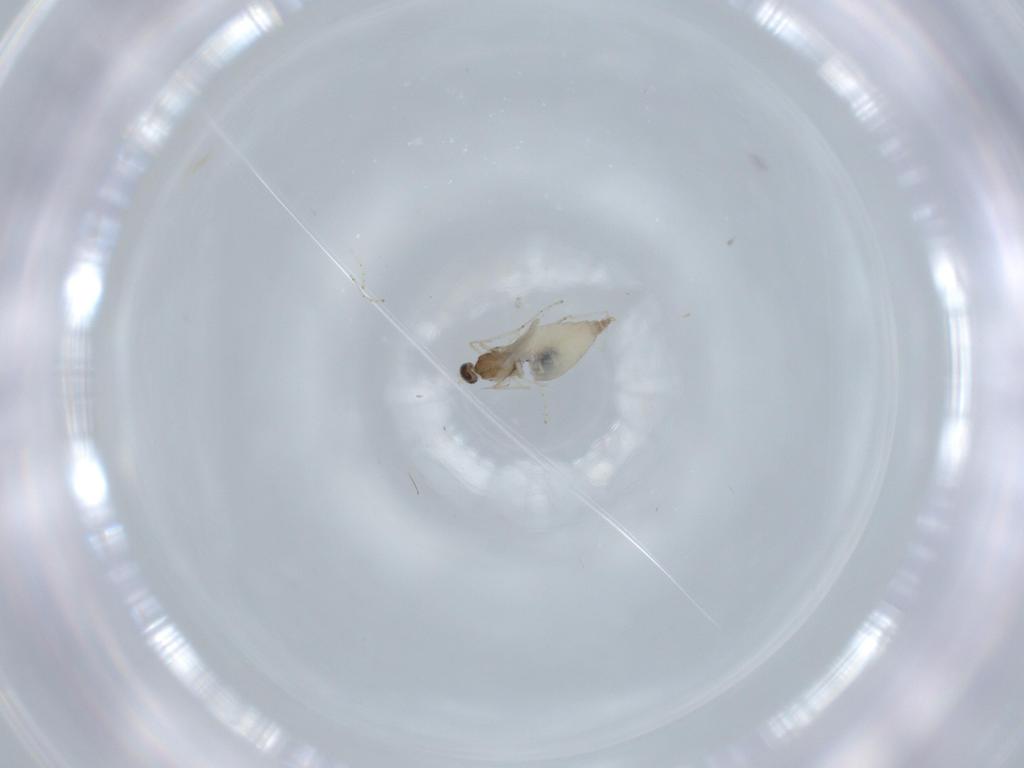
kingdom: Animalia
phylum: Arthropoda
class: Insecta
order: Diptera
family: Cecidomyiidae
